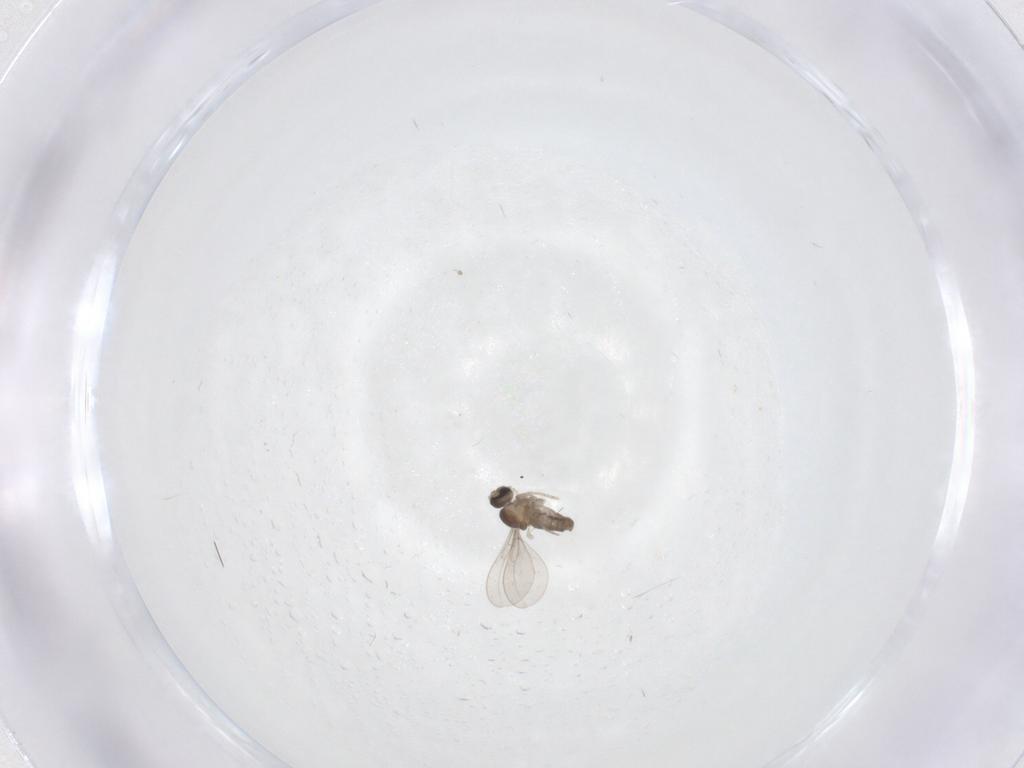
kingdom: Animalia
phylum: Arthropoda
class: Insecta
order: Diptera
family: Cecidomyiidae
